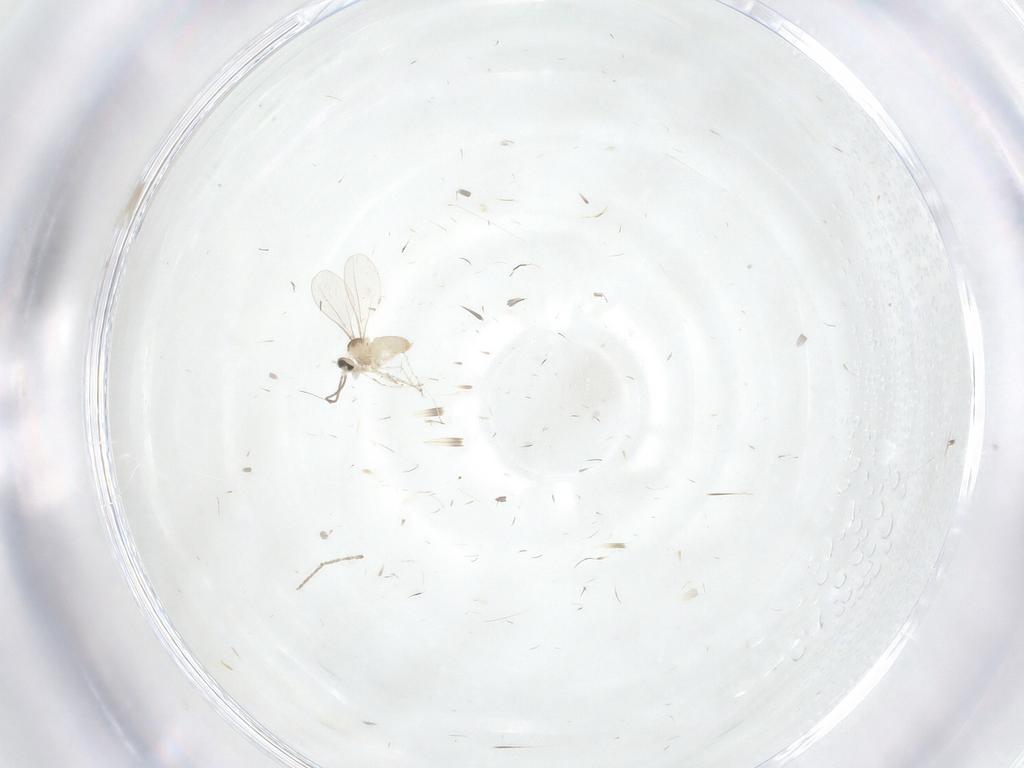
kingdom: Animalia
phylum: Arthropoda
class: Insecta
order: Diptera
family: Cecidomyiidae
